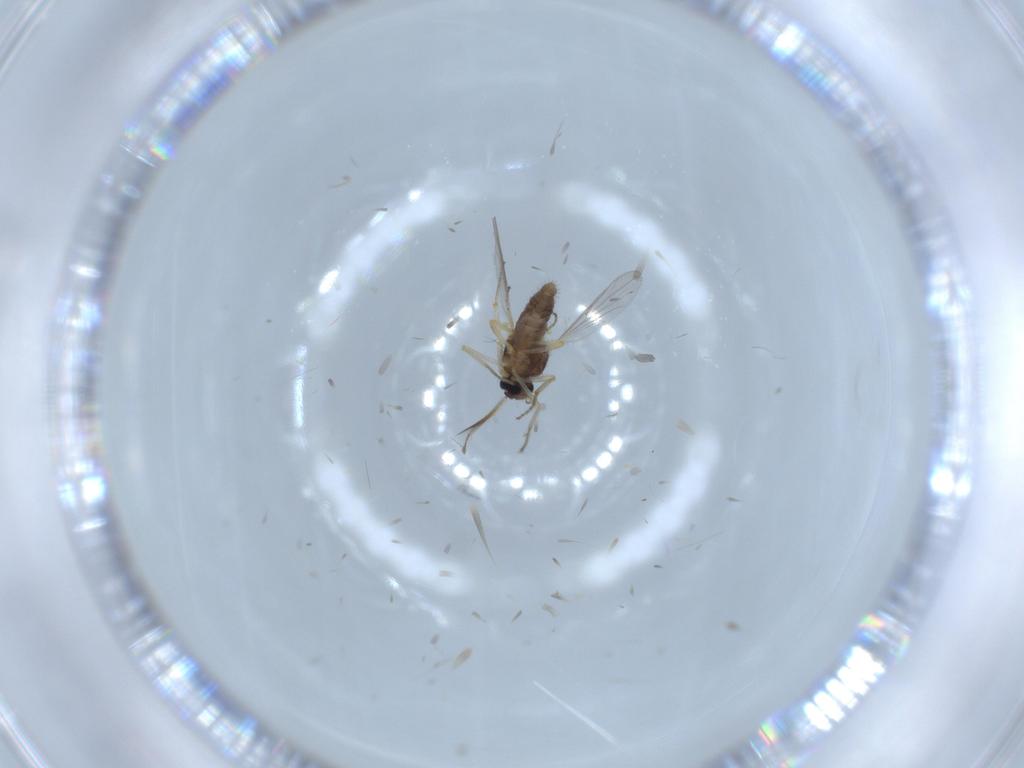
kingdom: Animalia
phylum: Arthropoda
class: Insecta
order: Diptera
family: Ceratopogonidae
